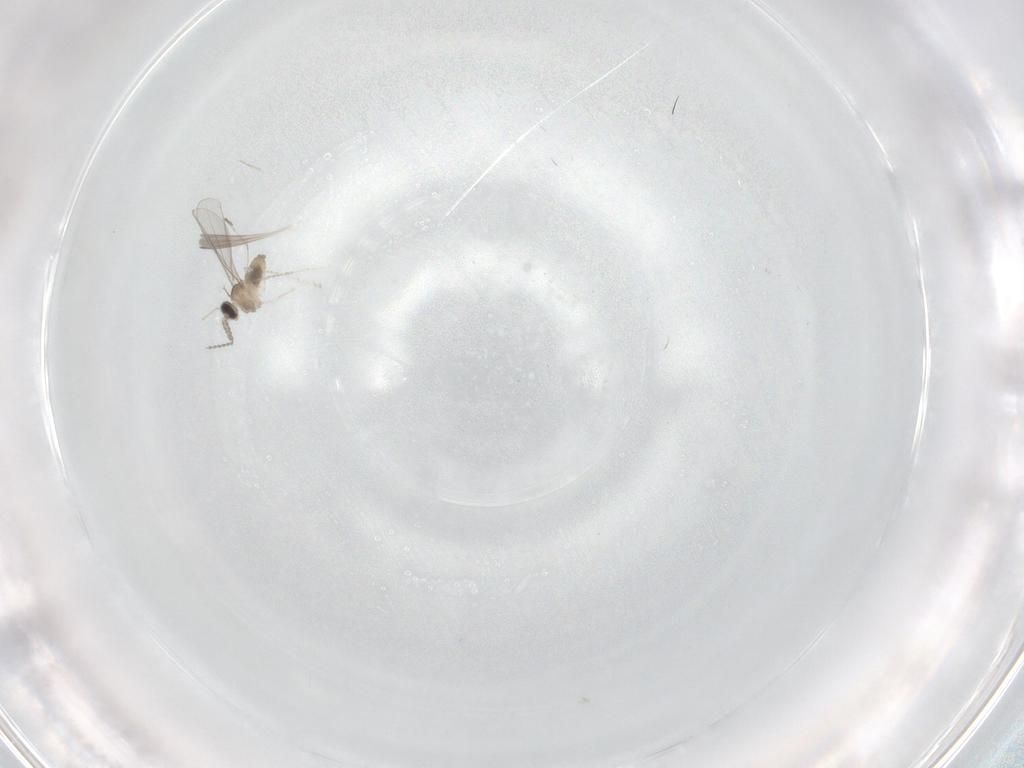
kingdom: Animalia
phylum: Arthropoda
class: Insecta
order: Diptera
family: Cecidomyiidae
